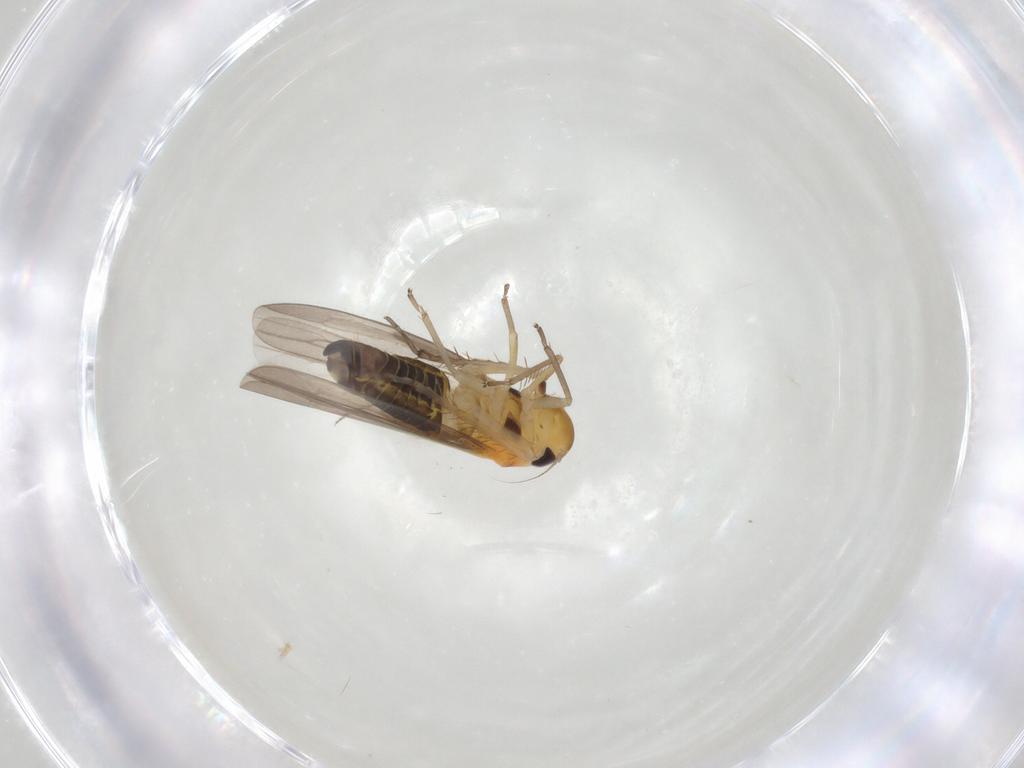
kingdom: Animalia
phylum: Arthropoda
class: Insecta
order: Hemiptera
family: Cicadellidae
